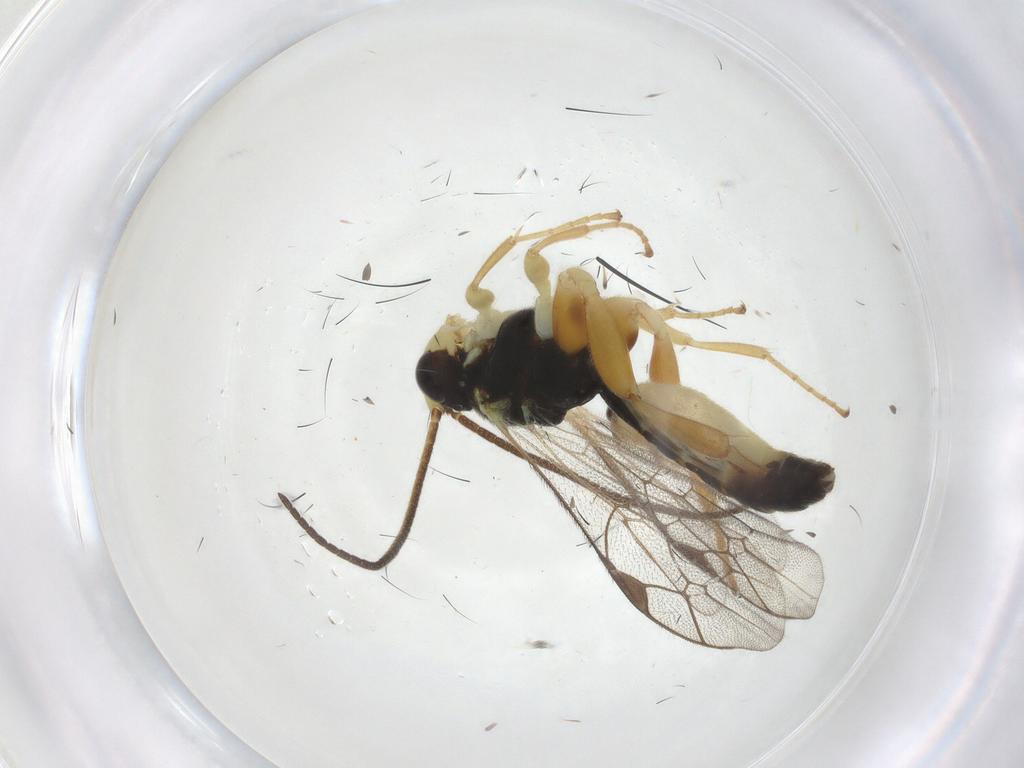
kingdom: Animalia
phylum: Arthropoda
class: Insecta
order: Hymenoptera
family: Ichneumonidae
